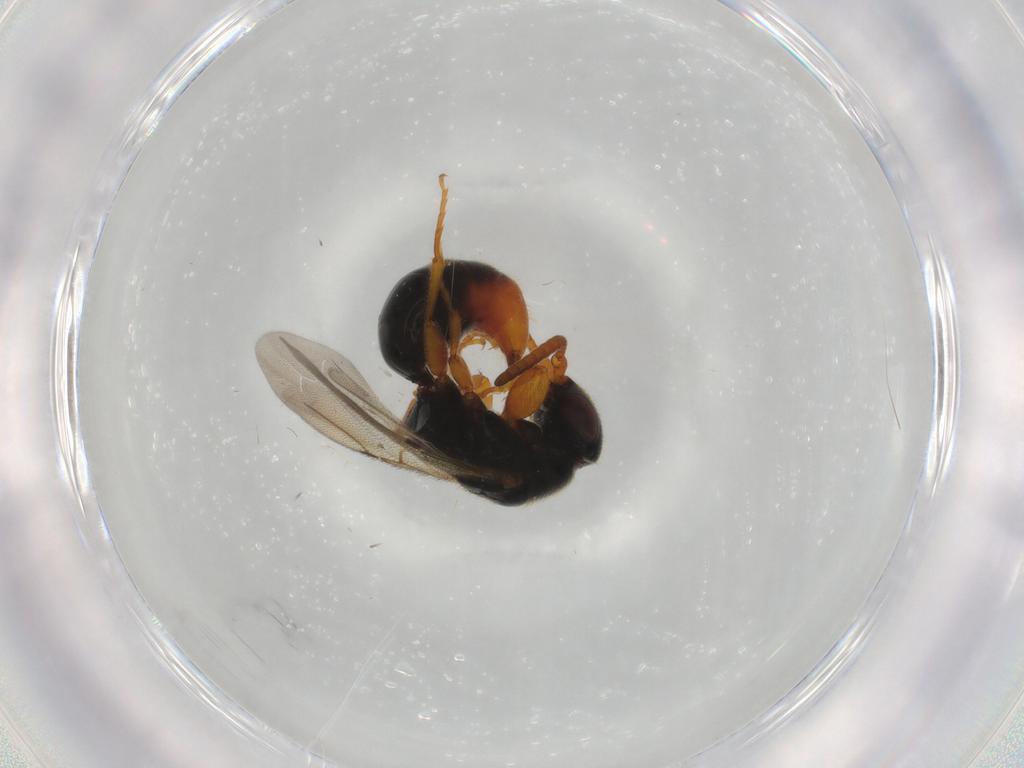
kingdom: Animalia
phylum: Arthropoda
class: Insecta
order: Hymenoptera
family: Bethylidae
